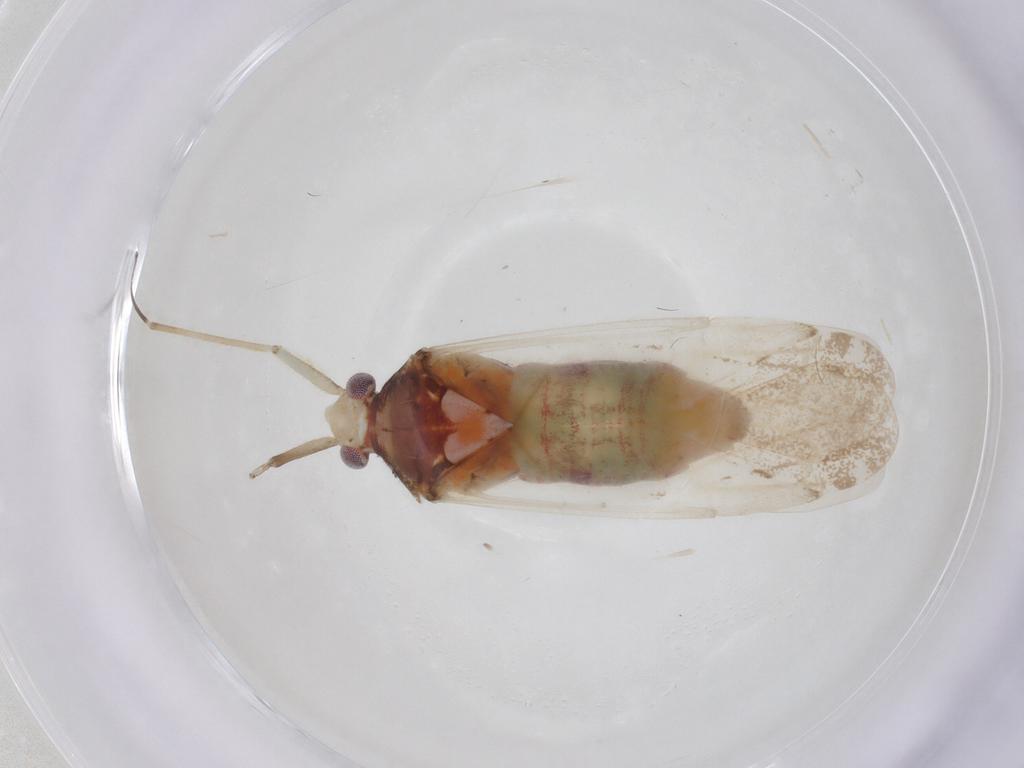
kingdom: Animalia
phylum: Arthropoda
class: Insecta
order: Hemiptera
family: Miridae
